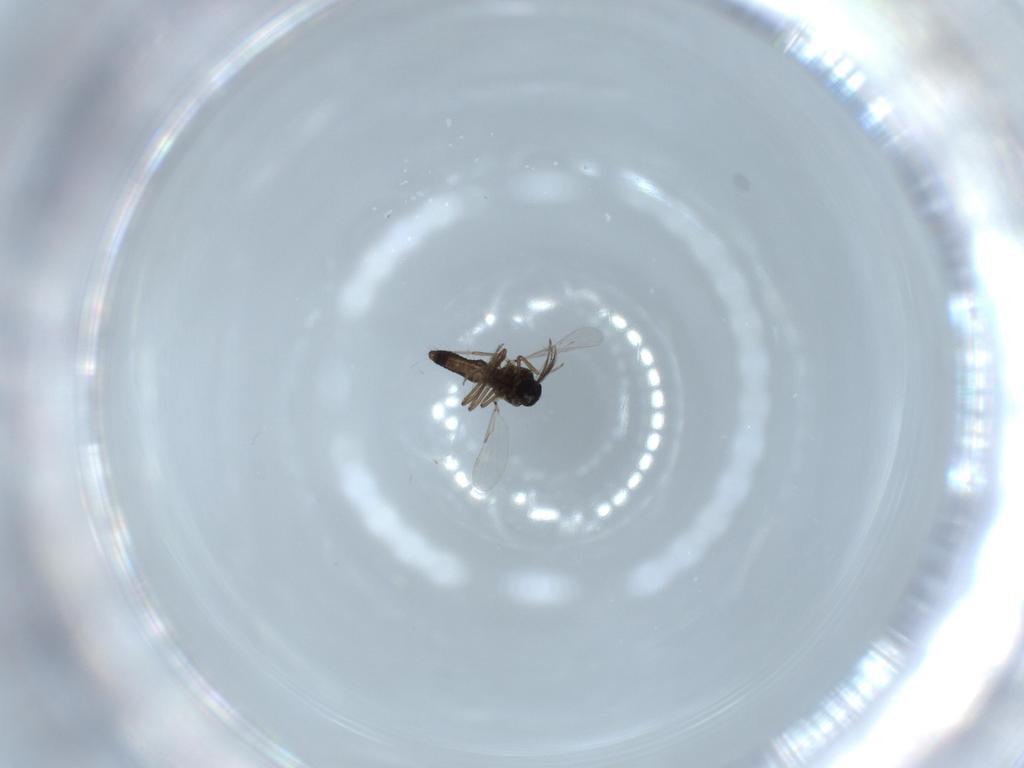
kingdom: Animalia
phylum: Arthropoda
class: Insecta
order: Diptera
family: Ceratopogonidae
